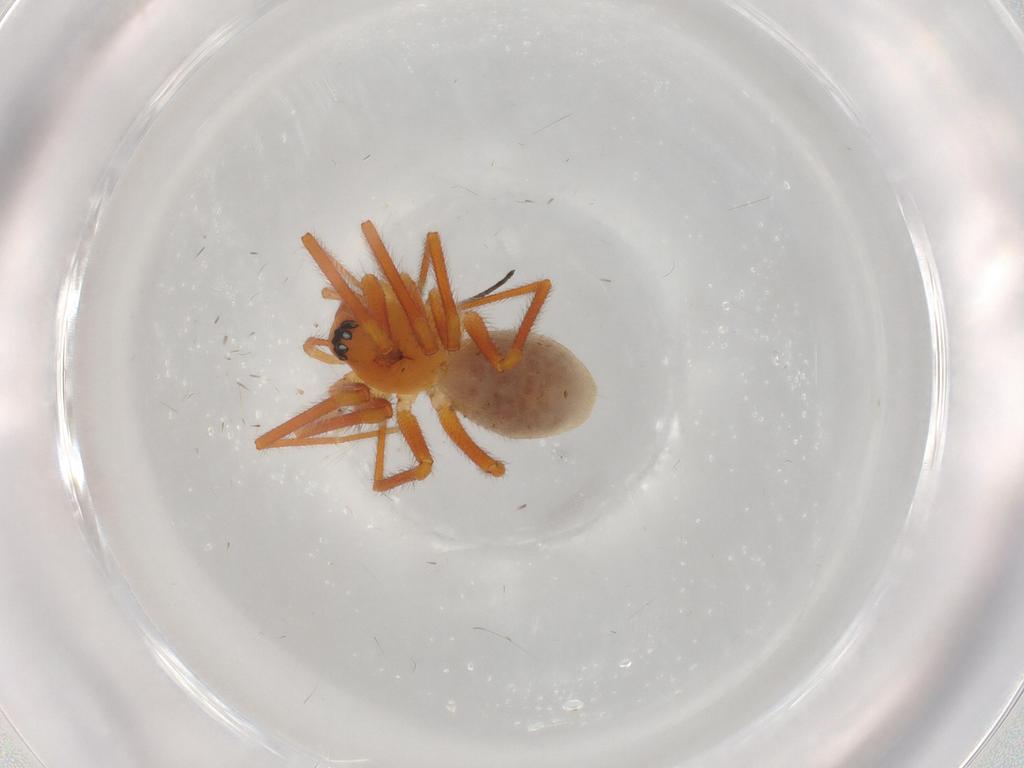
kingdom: Animalia
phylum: Arthropoda
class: Arachnida
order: Araneae
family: Linyphiidae
